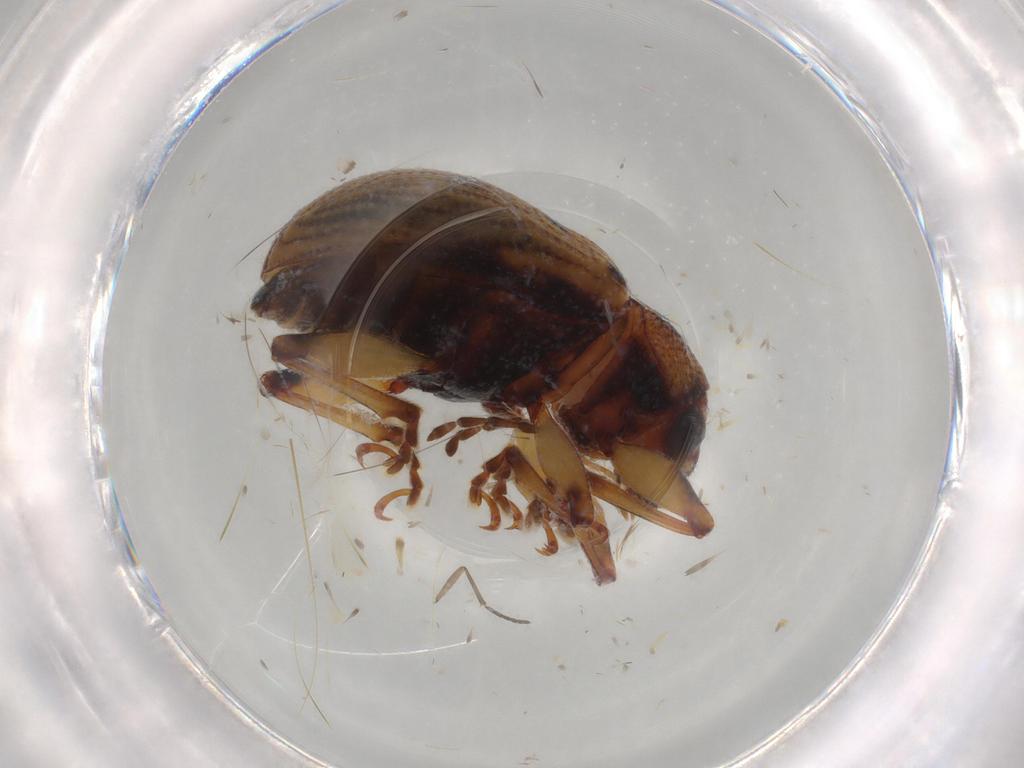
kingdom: Animalia
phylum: Arthropoda
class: Insecta
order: Coleoptera
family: Chrysomelidae
